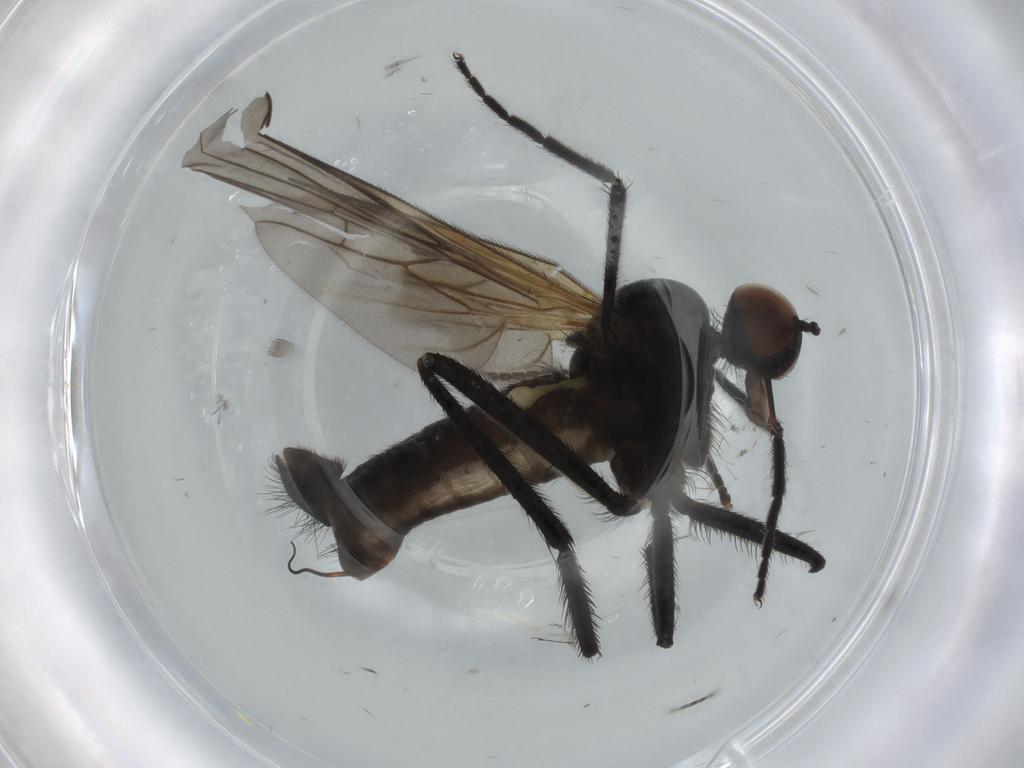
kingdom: Animalia
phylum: Arthropoda
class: Insecta
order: Diptera
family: Empididae
